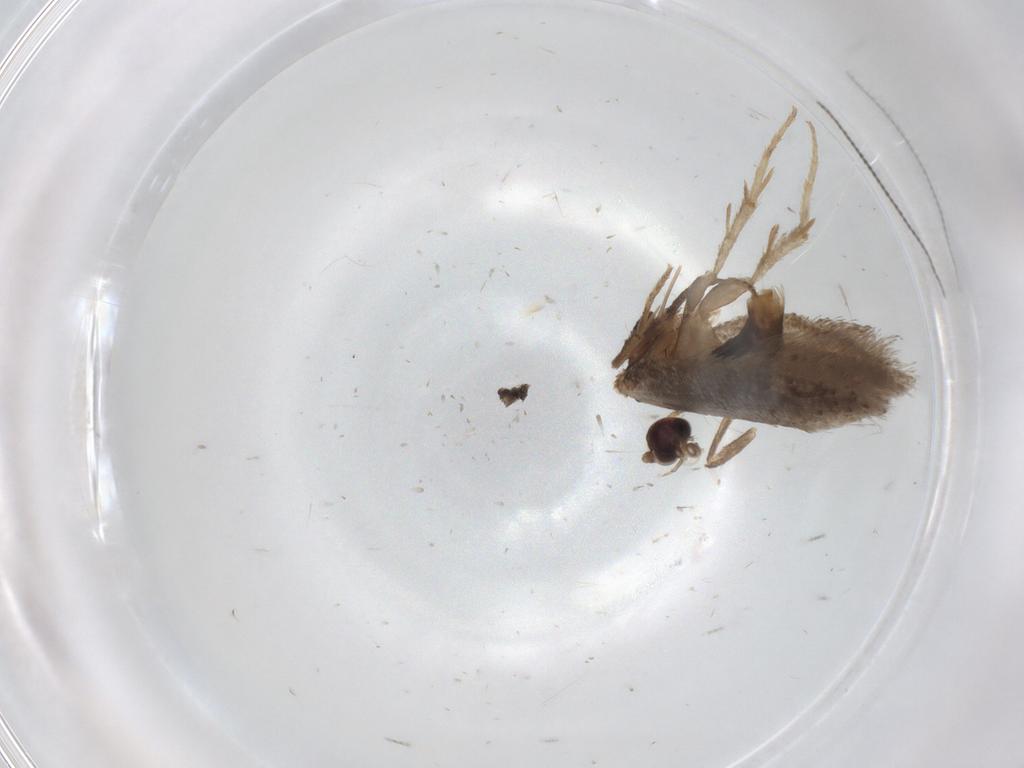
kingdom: Animalia
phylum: Arthropoda
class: Insecta
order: Lepidoptera
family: Nepticulidae
